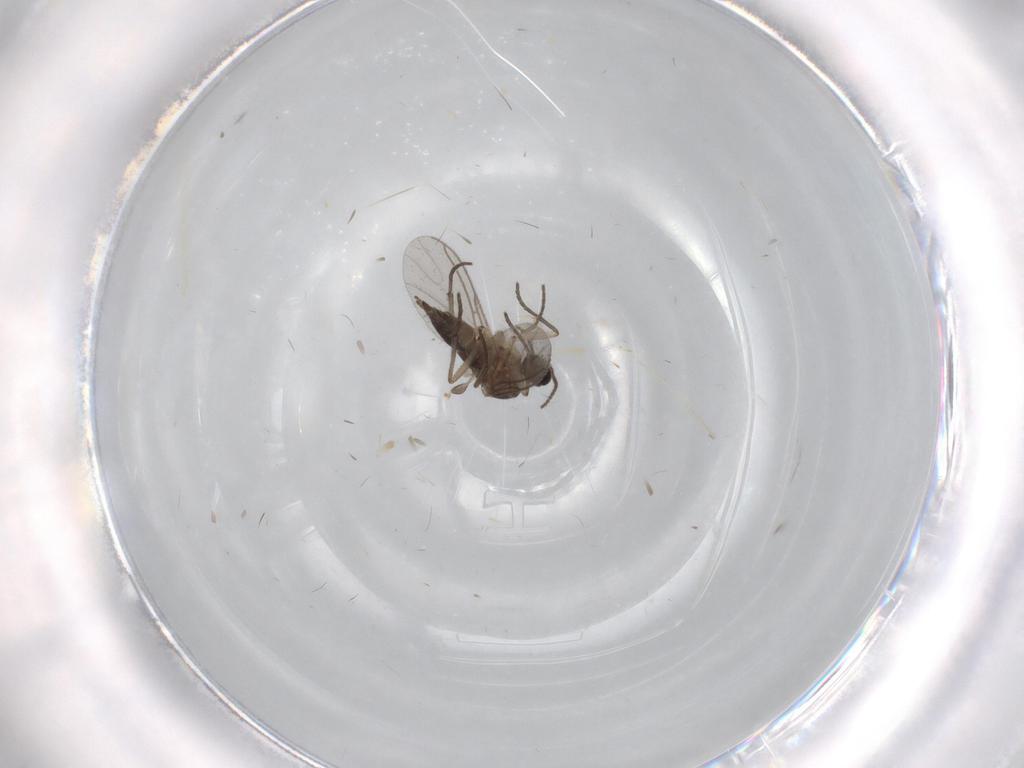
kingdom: Animalia
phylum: Arthropoda
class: Insecta
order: Diptera
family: Sciaridae
